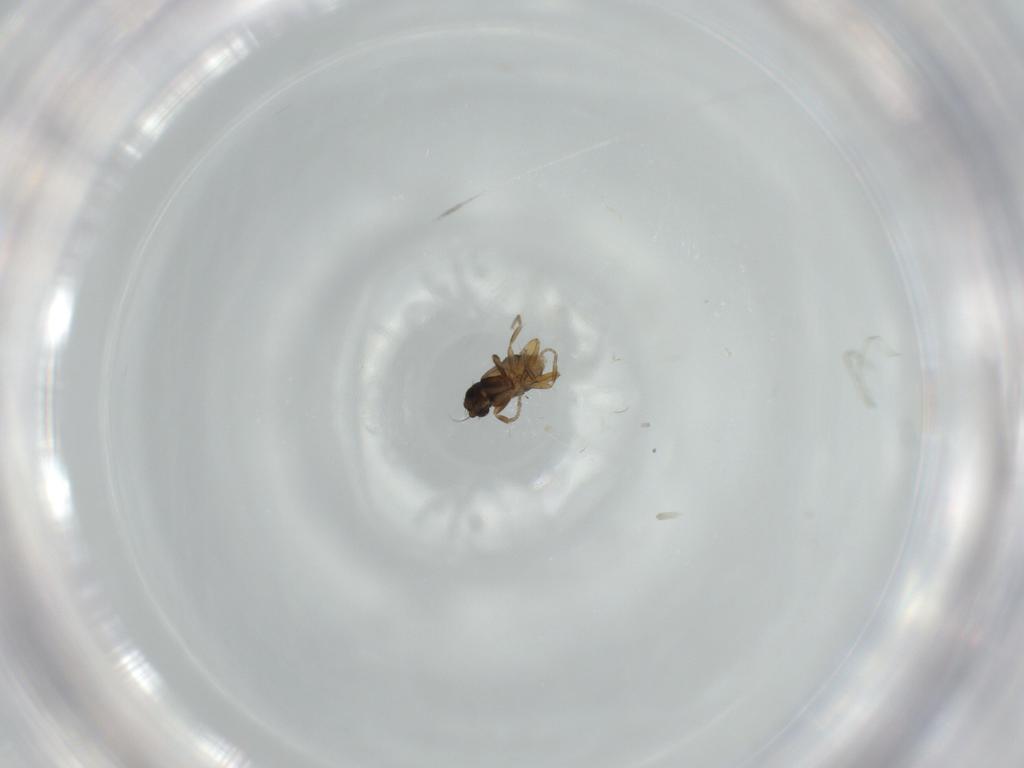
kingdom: Animalia
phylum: Arthropoda
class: Insecta
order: Diptera
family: Phoridae
